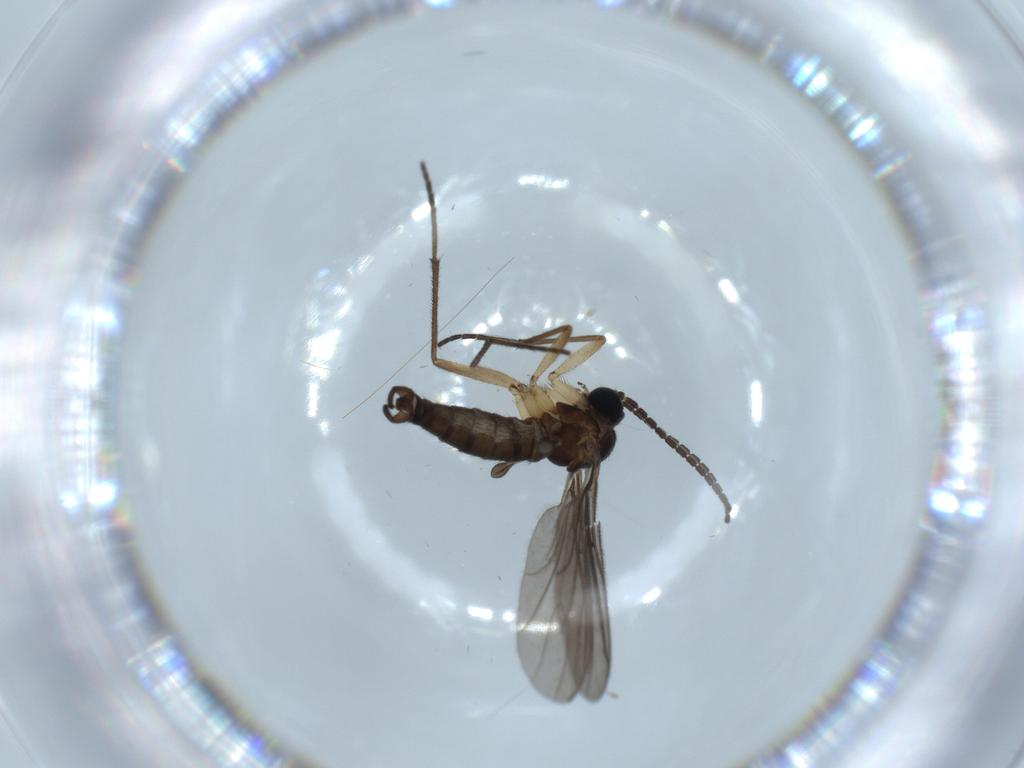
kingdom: Animalia
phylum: Arthropoda
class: Insecta
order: Diptera
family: Sciaridae
